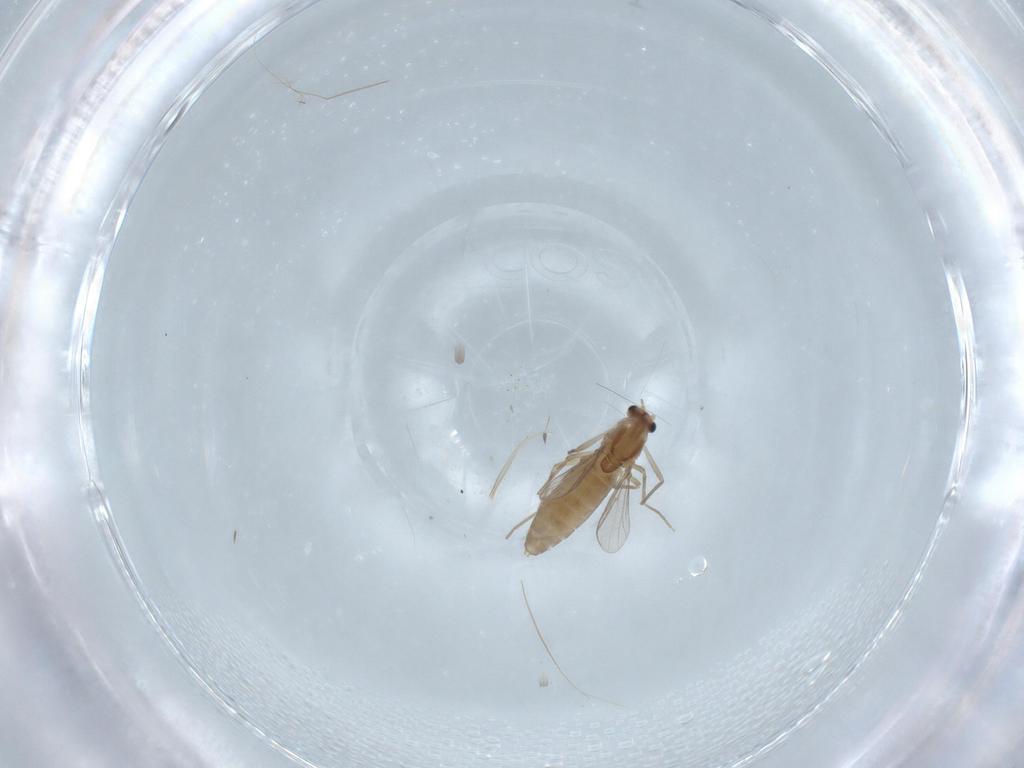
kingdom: Animalia
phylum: Arthropoda
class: Insecta
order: Diptera
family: Chironomidae
